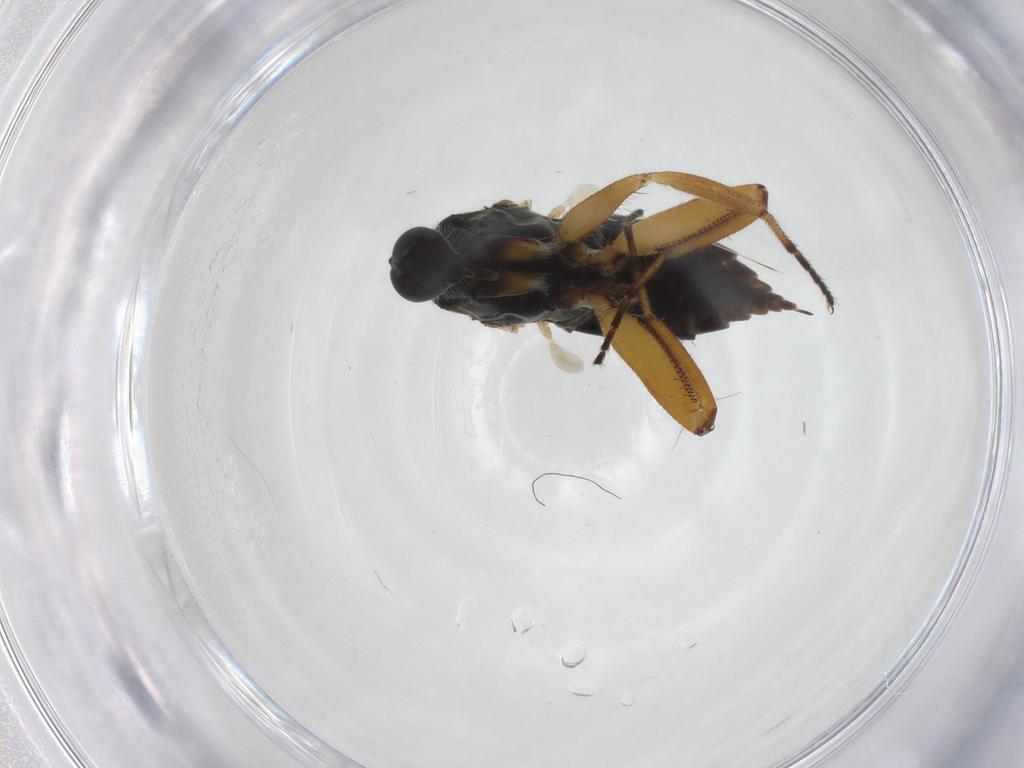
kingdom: Animalia
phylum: Arthropoda
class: Insecta
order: Diptera
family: Hybotidae
